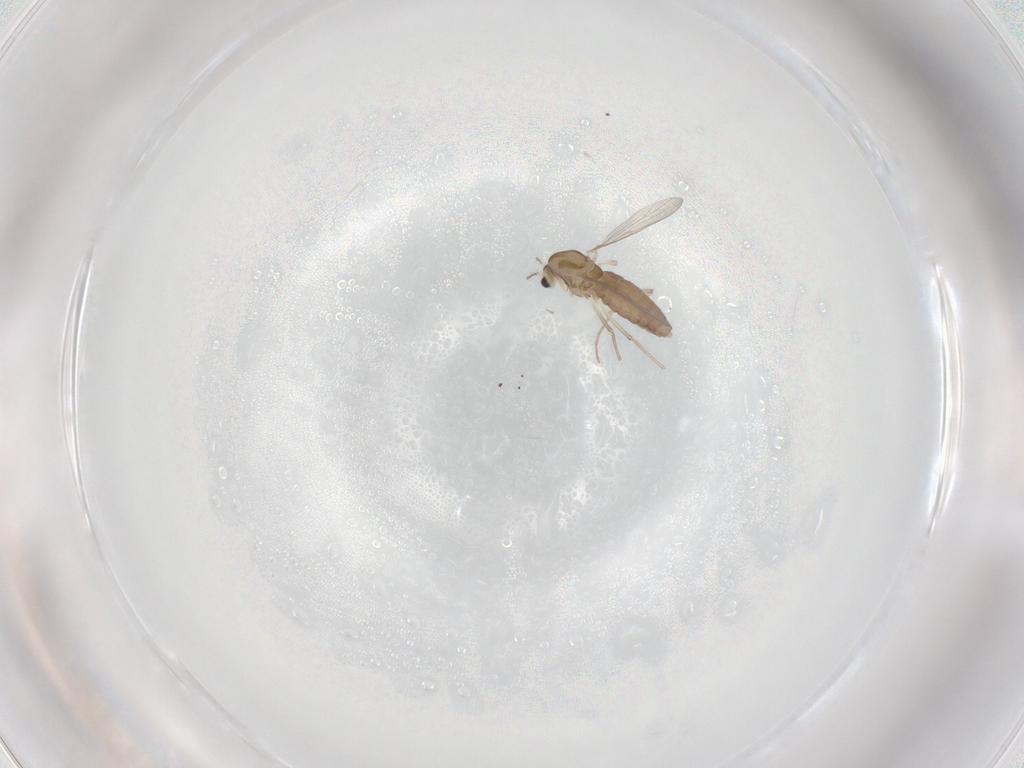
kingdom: Animalia
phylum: Arthropoda
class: Insecta
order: Diptera
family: Chironomidae
